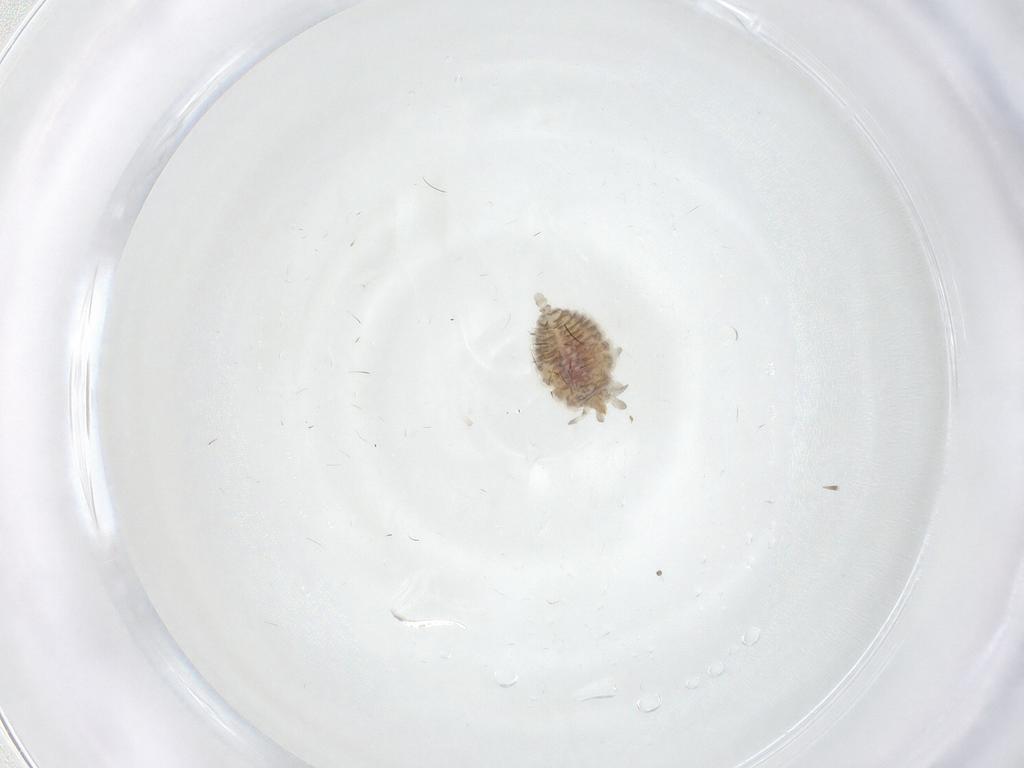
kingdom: Animalia
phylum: Arthropoda
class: Insecta
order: Neuroptera
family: Coniopterygidae
